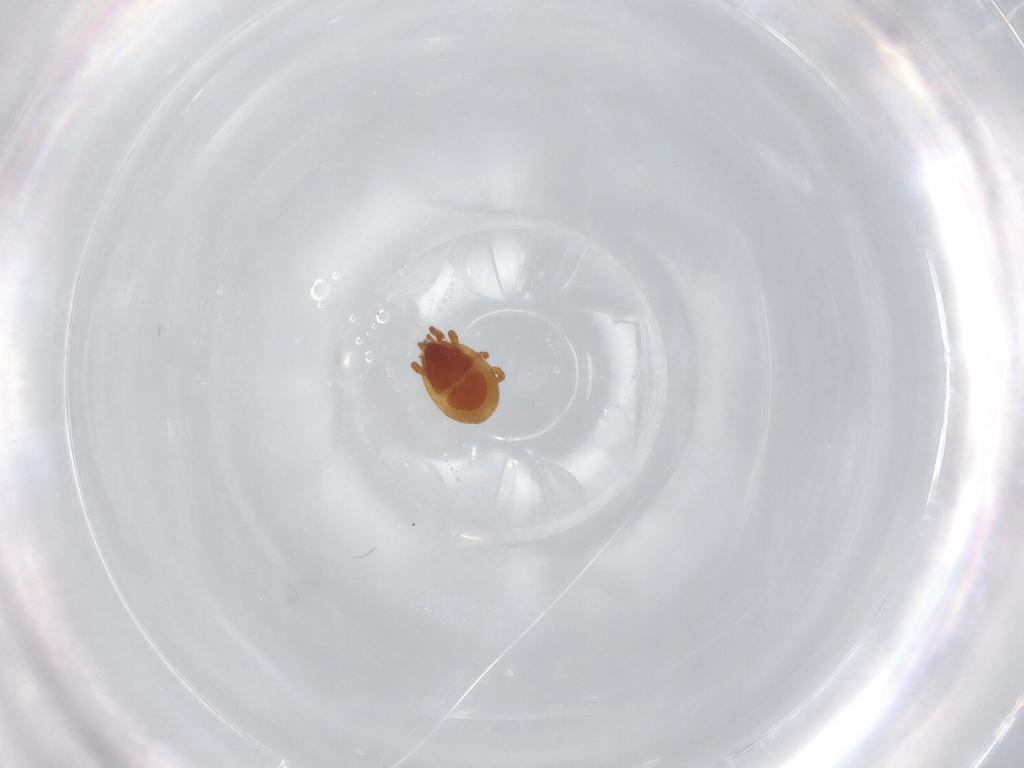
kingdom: Animalia
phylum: Arthropoda
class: Arachnida
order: Mesostigmata
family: Parasitidae
